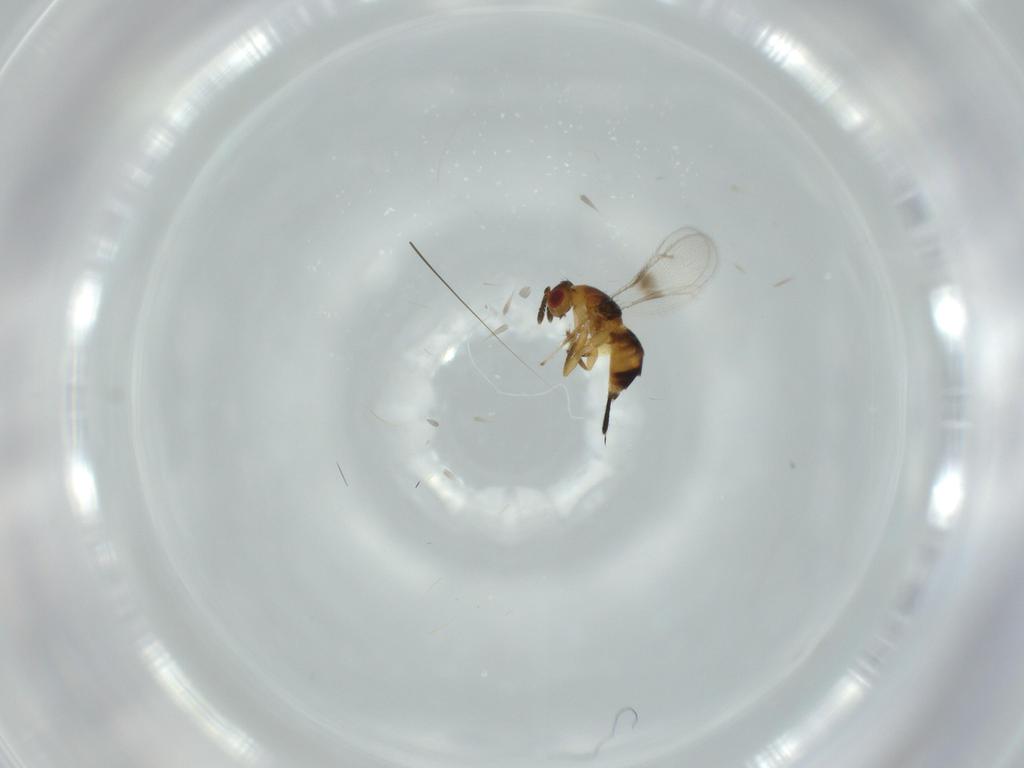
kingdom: Animalia
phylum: Arthropoda
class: Insecta
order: Hymenoptera
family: Torymidae
